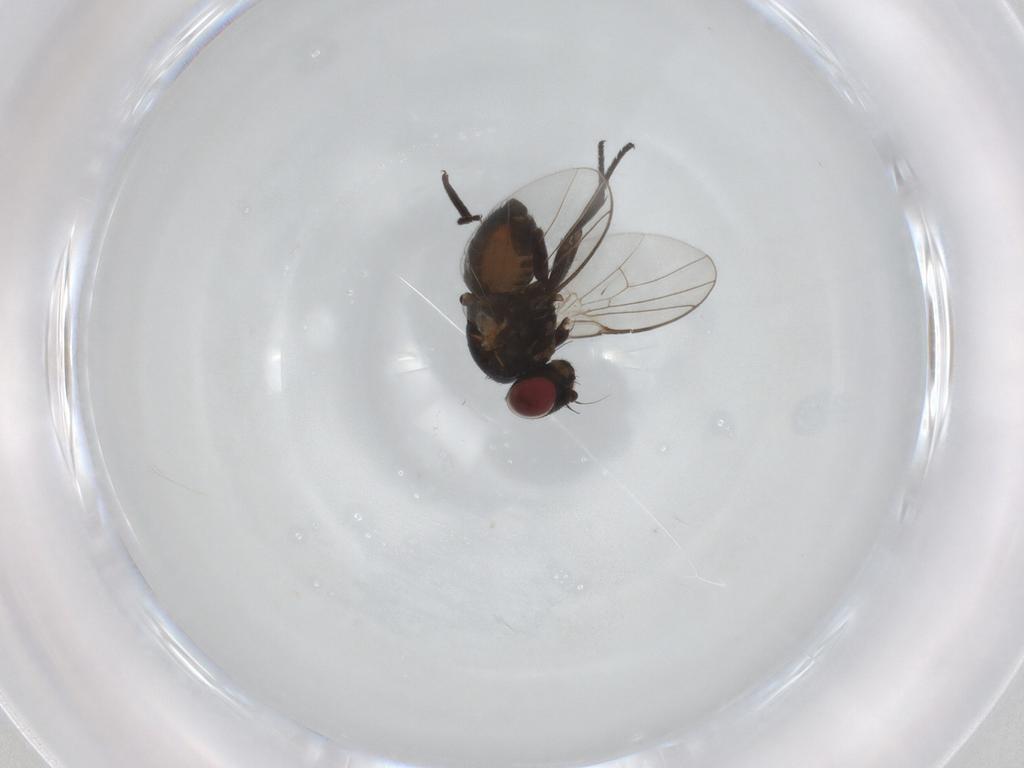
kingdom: Animalia
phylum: Arthropoda
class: Insecta
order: Diptera
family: Agromyzidae
